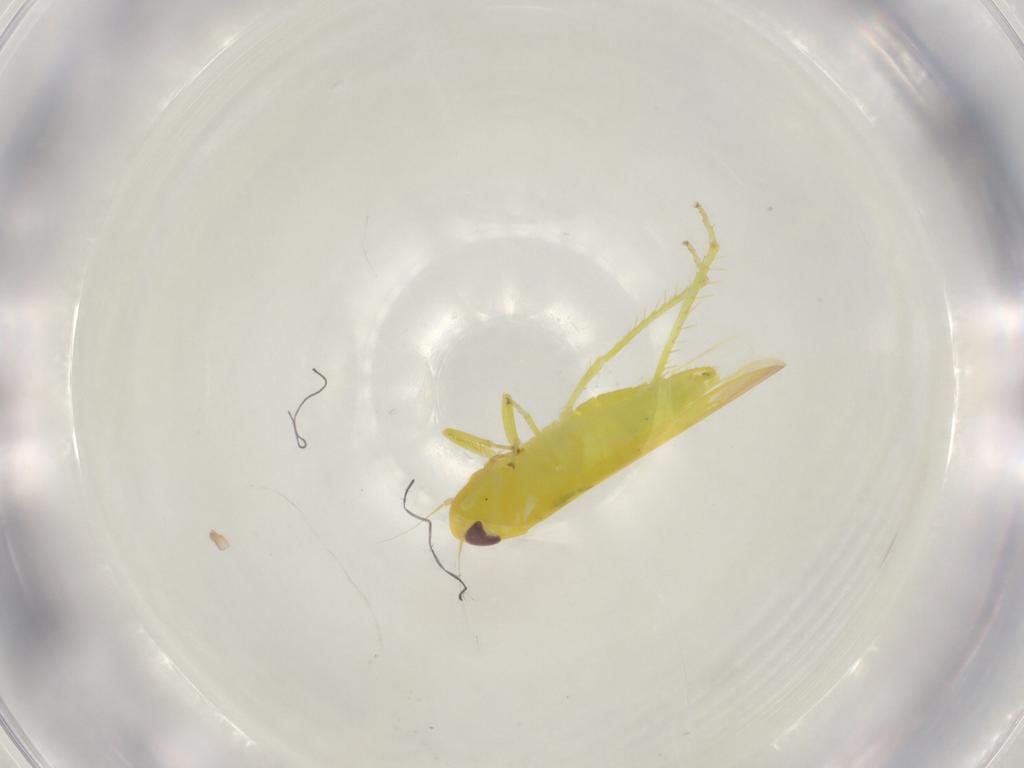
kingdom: Animalia
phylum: Arthropoda
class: Insecta
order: Hemiptera
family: Cicadellidae
